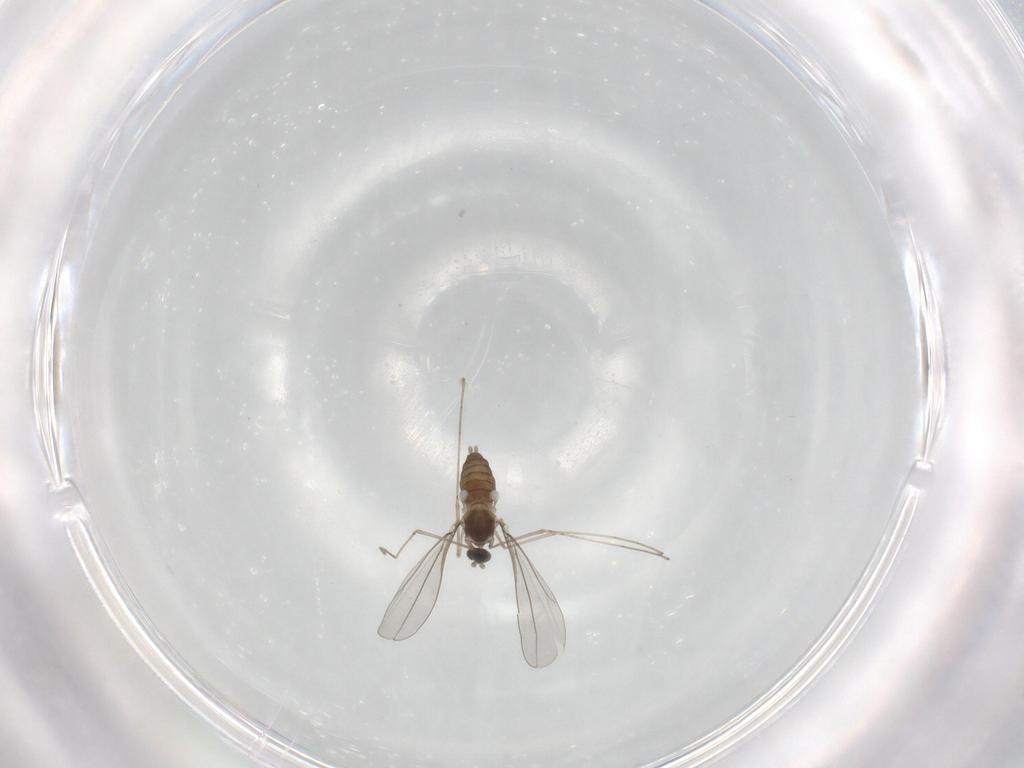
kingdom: Animalia
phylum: Arthropoda
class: Insecta
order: Diptera
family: Cecidomyiidae
